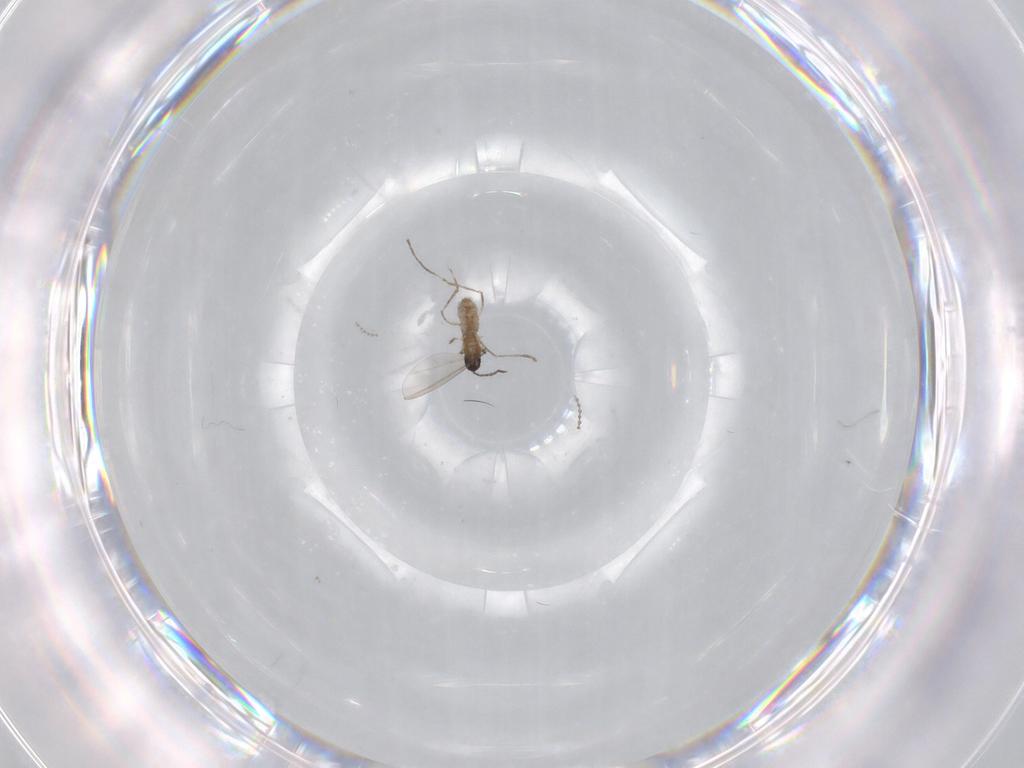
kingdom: Animalia
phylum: Arthropoda
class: Insecta
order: Diptera
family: Cecidomyiidae
